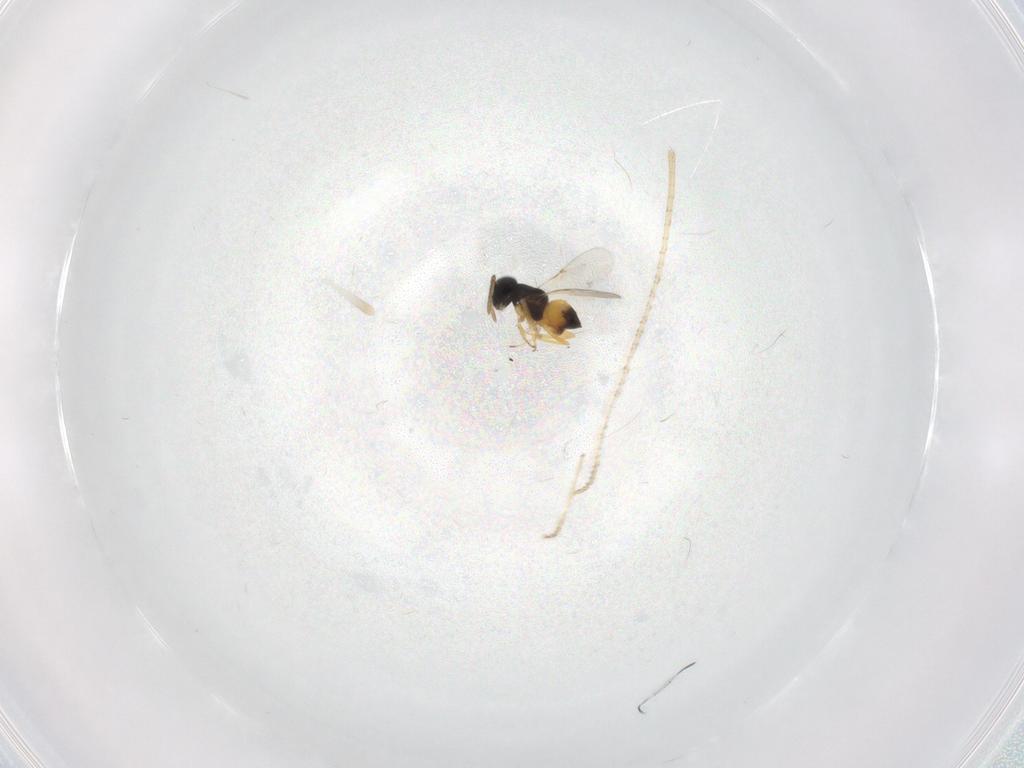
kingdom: Animalia
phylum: Arthropoda
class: Insecta
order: Hymenoptera
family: Encyrtidae
